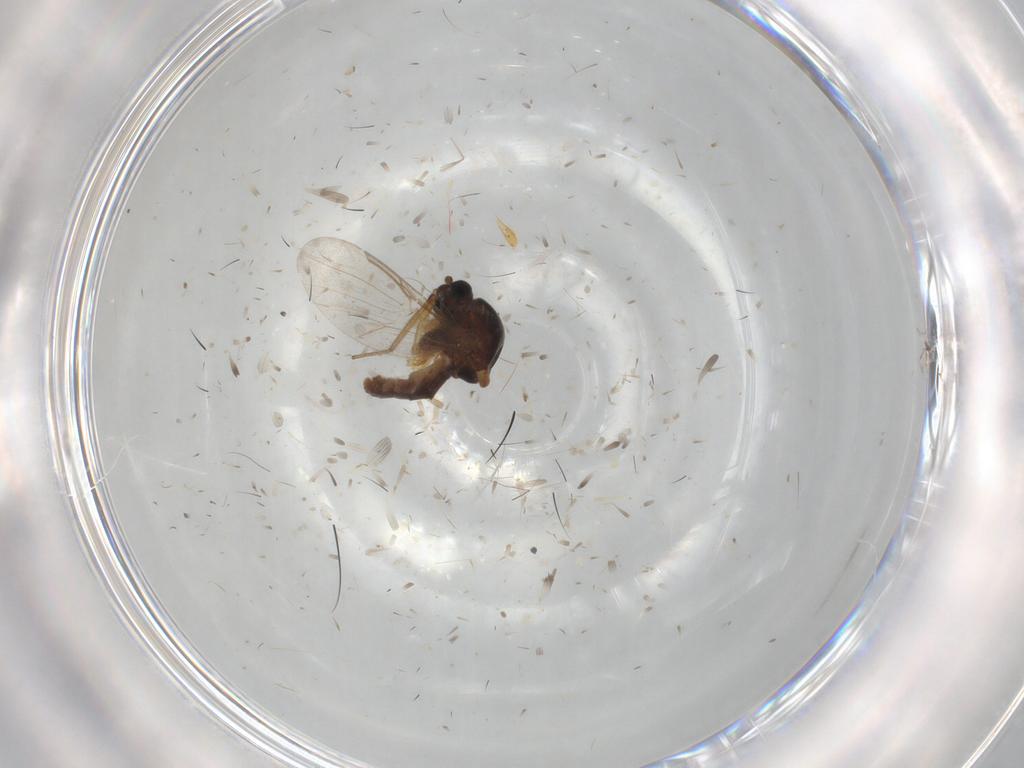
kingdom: Animalia
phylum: Arthropoda
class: Insecta
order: Diptera
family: Ceratopogonidae
